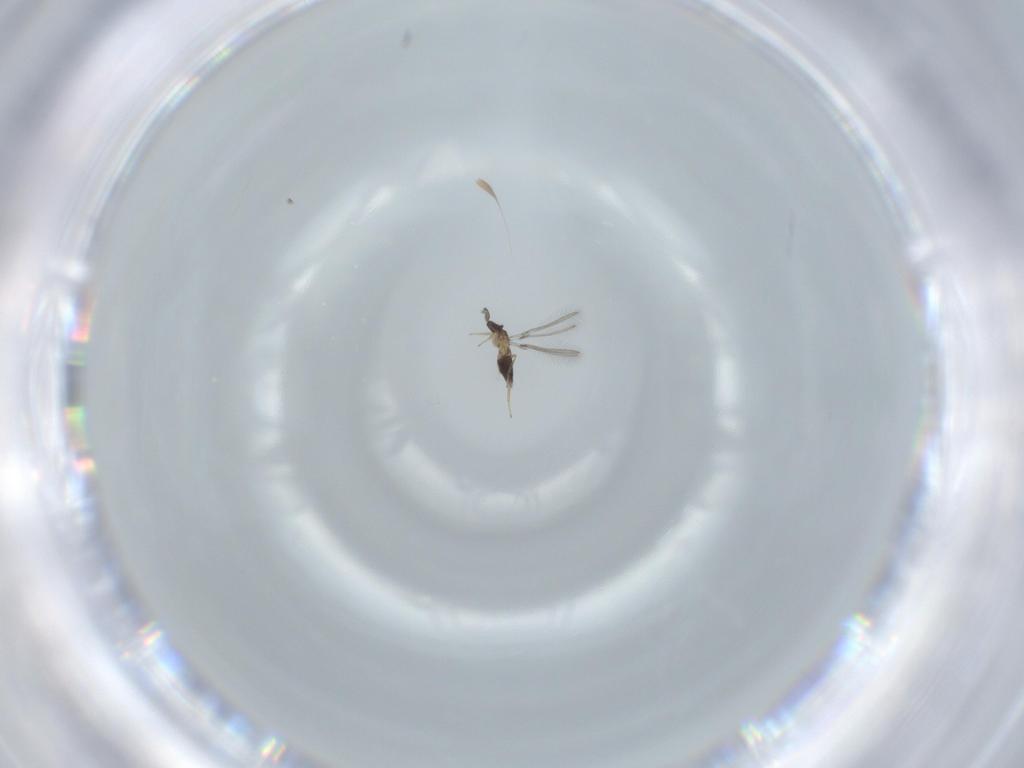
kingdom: Animalia
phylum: Arthropoda
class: Insecta
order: Hymenoptera
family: Mymaridae
